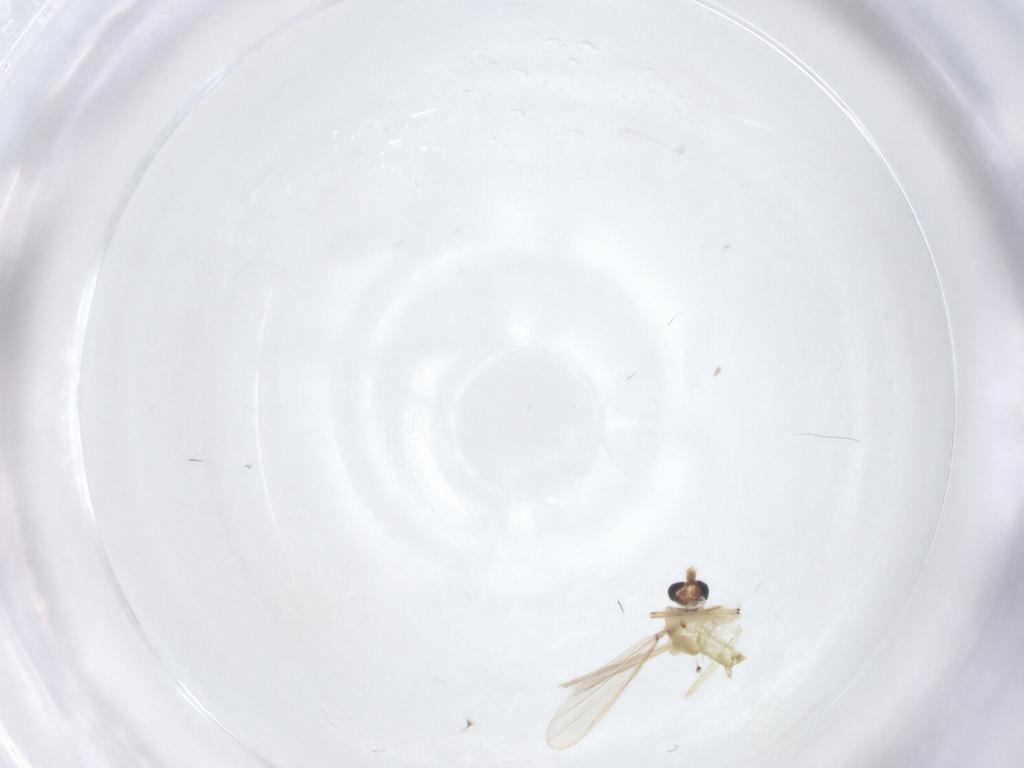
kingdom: Animalia
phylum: Arthropoda
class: Insecta
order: Diptera
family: Chironomidae
